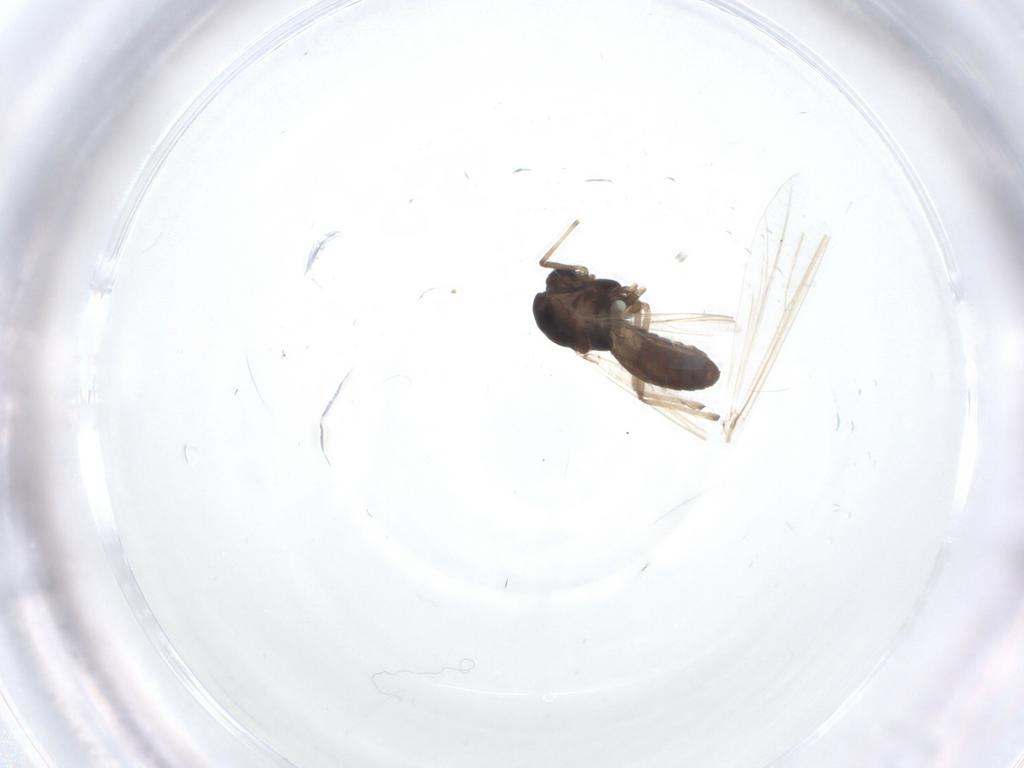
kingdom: Animalia
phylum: Arthropoda
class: Insecta
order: Diptera
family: Chironomidae
